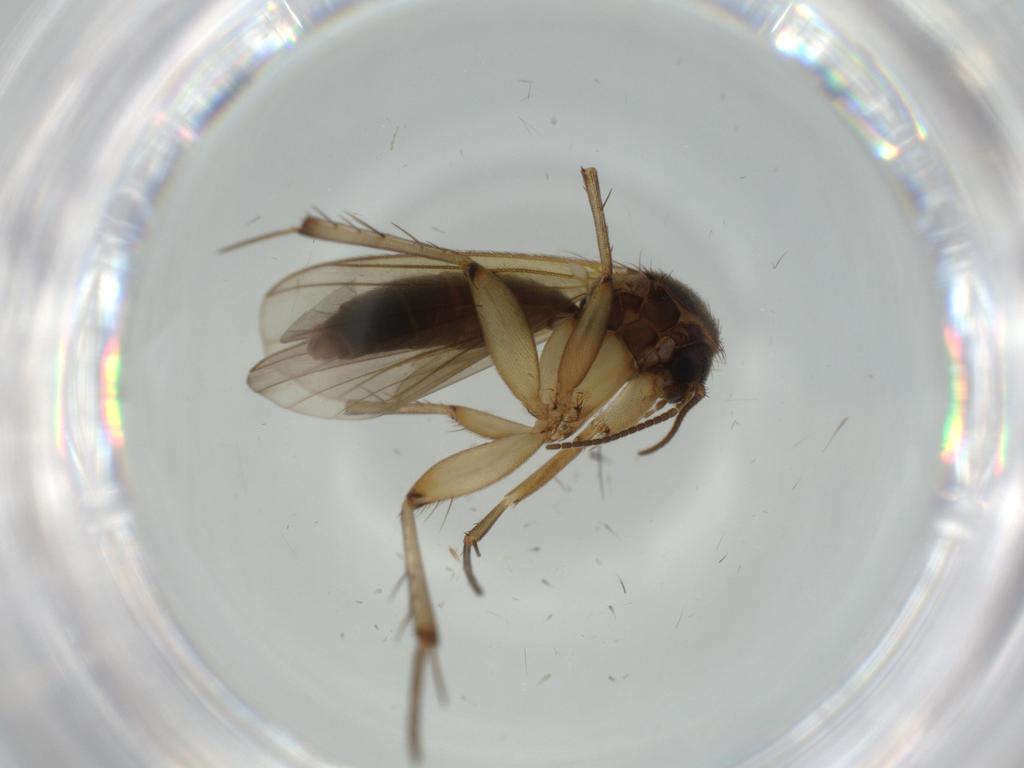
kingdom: Animalia
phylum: Arthropoda
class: Insecta
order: Diptera
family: Cecidomyiidae
